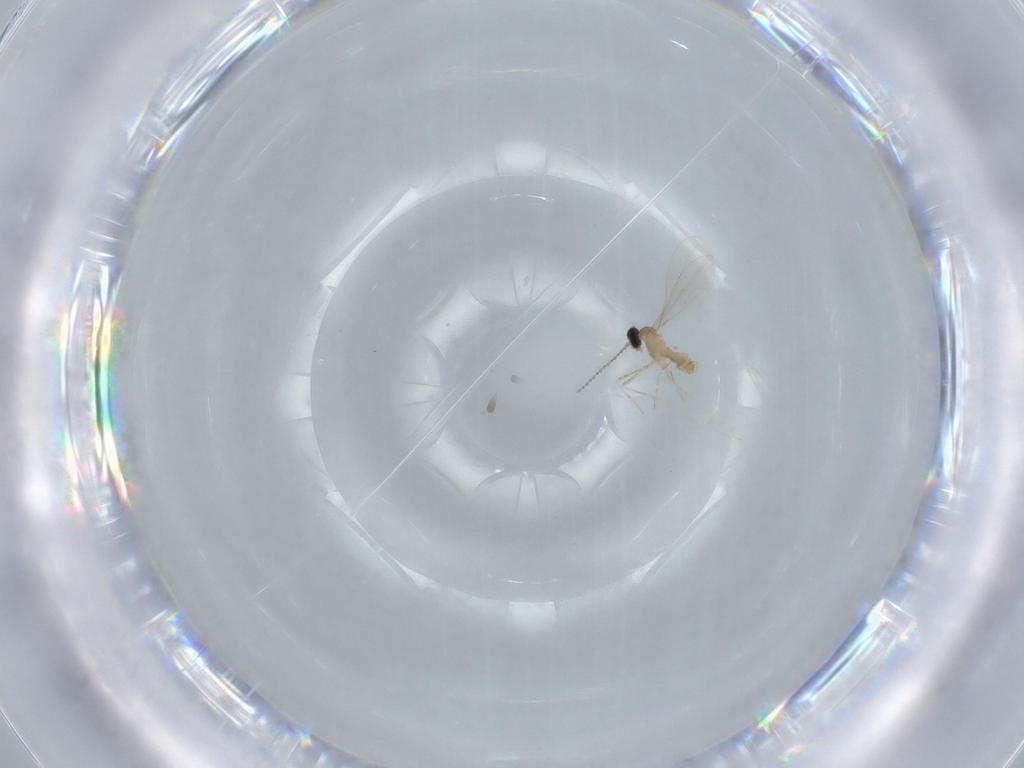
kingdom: Animalia
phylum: Arthropoda
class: Insecta
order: Diptera
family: Cecidomyiidae
